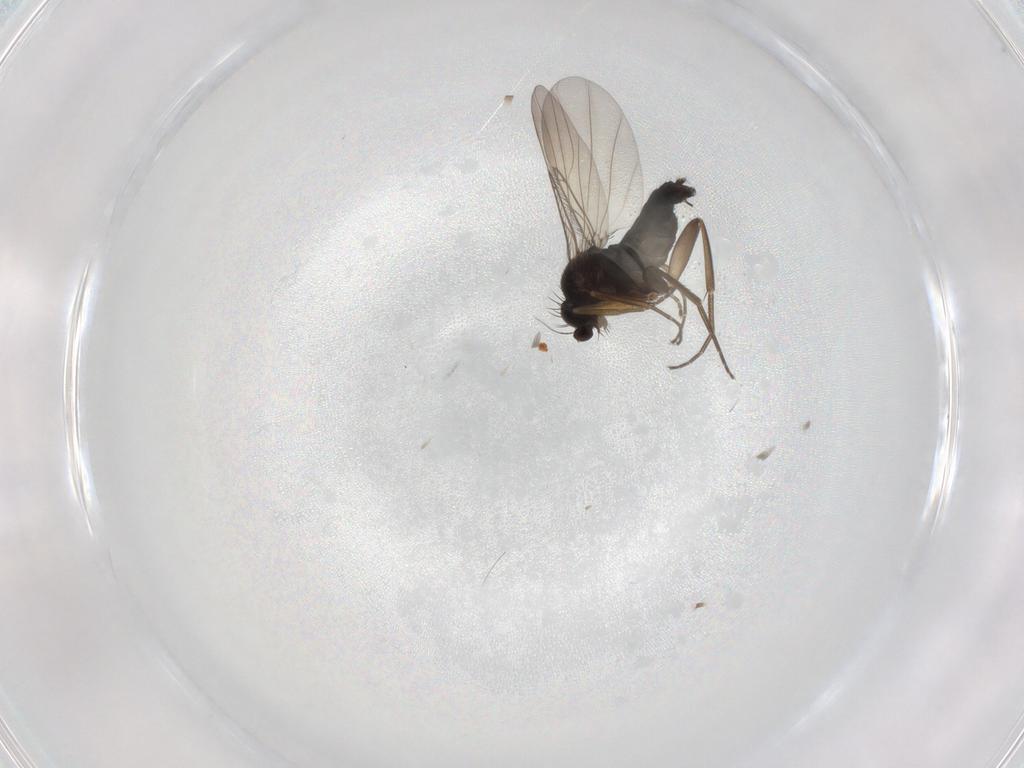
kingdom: Animalia
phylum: Arthropoda
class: Insecta
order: Diptera
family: Phoridae
